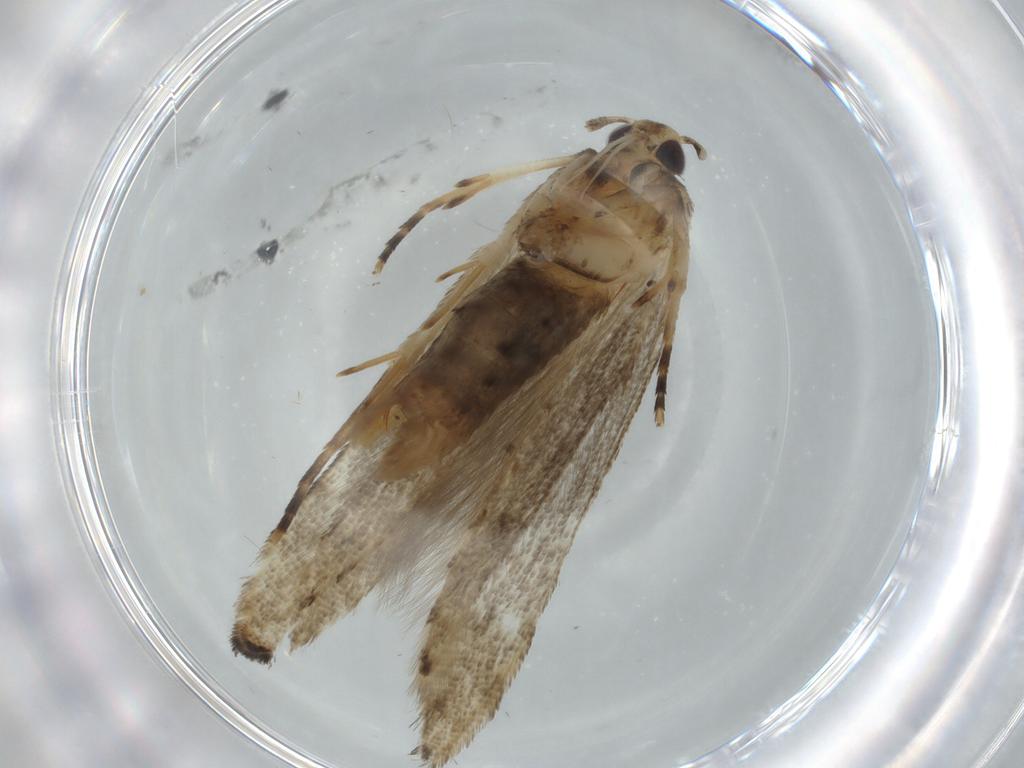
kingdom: Animalia
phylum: Arthropoda
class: Insecta
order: Lepidoptera
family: Momphidae
